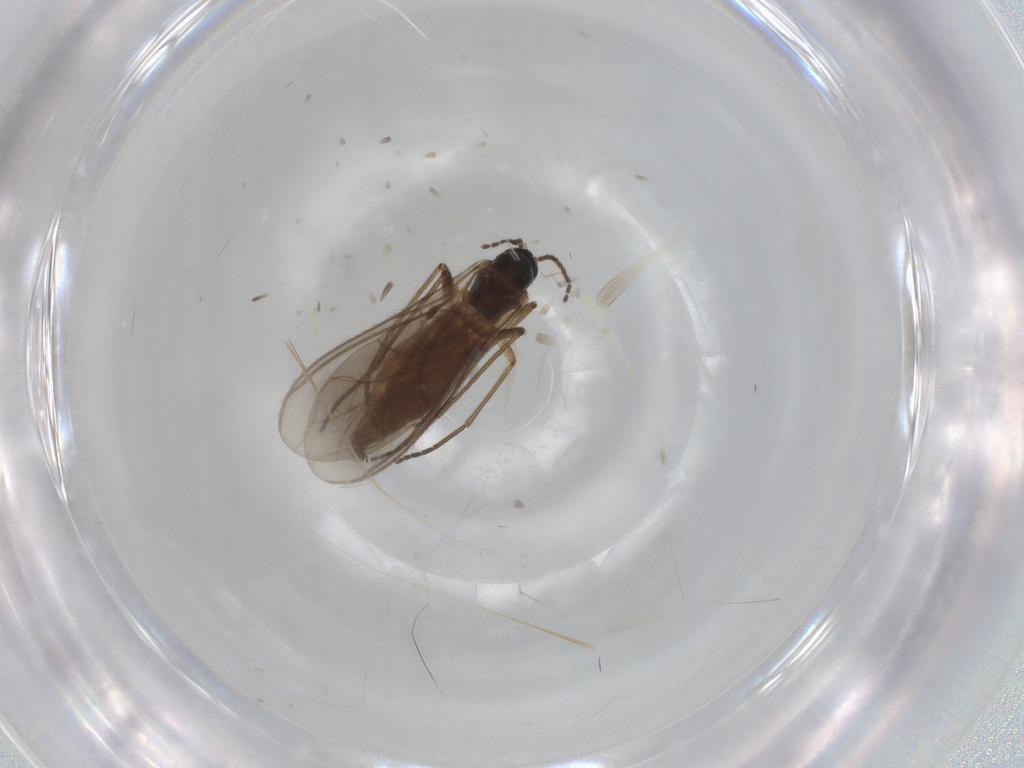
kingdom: Animalia
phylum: Arthropoda
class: Insecta
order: Diptera
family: Sciaridae
